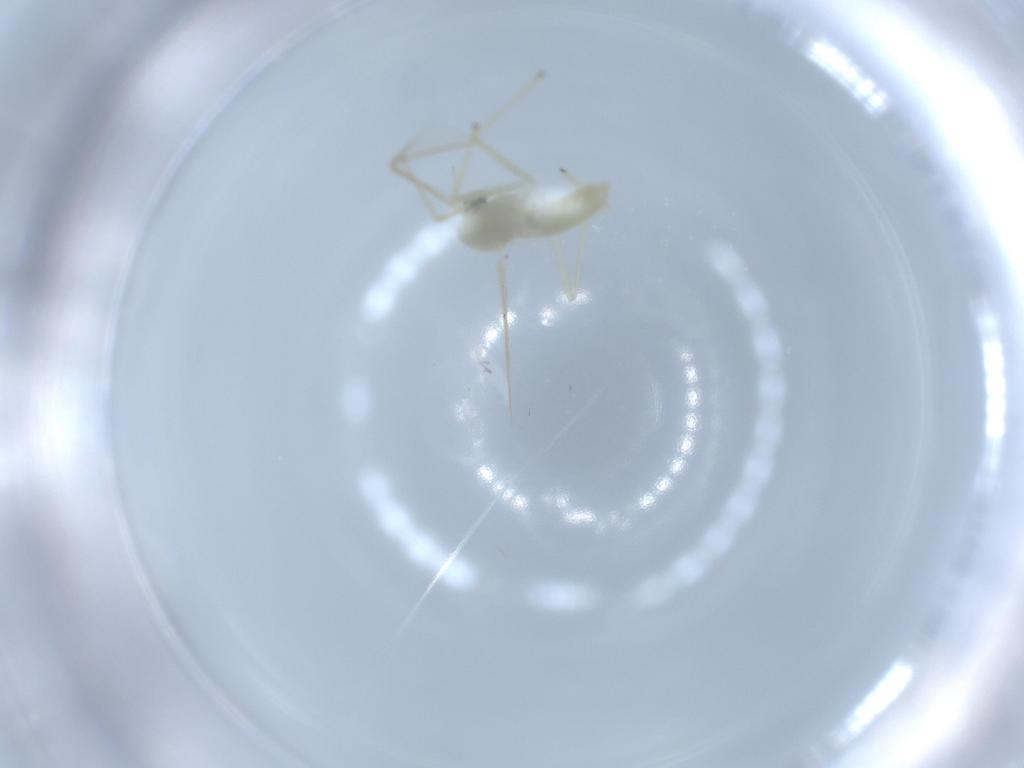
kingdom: Animalia
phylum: Arthropoda
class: Insecta
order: Diptera
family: Chironomidae
